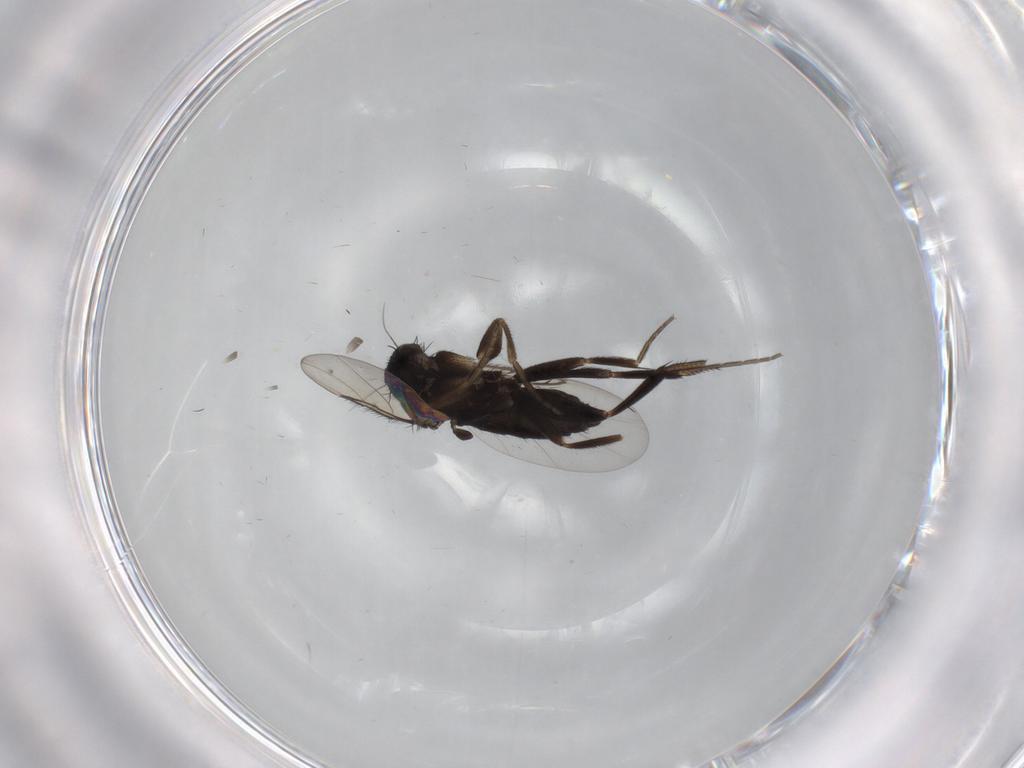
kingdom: Animalia
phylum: Arthropoda
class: Insecta
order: Diptera
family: Phoridae
